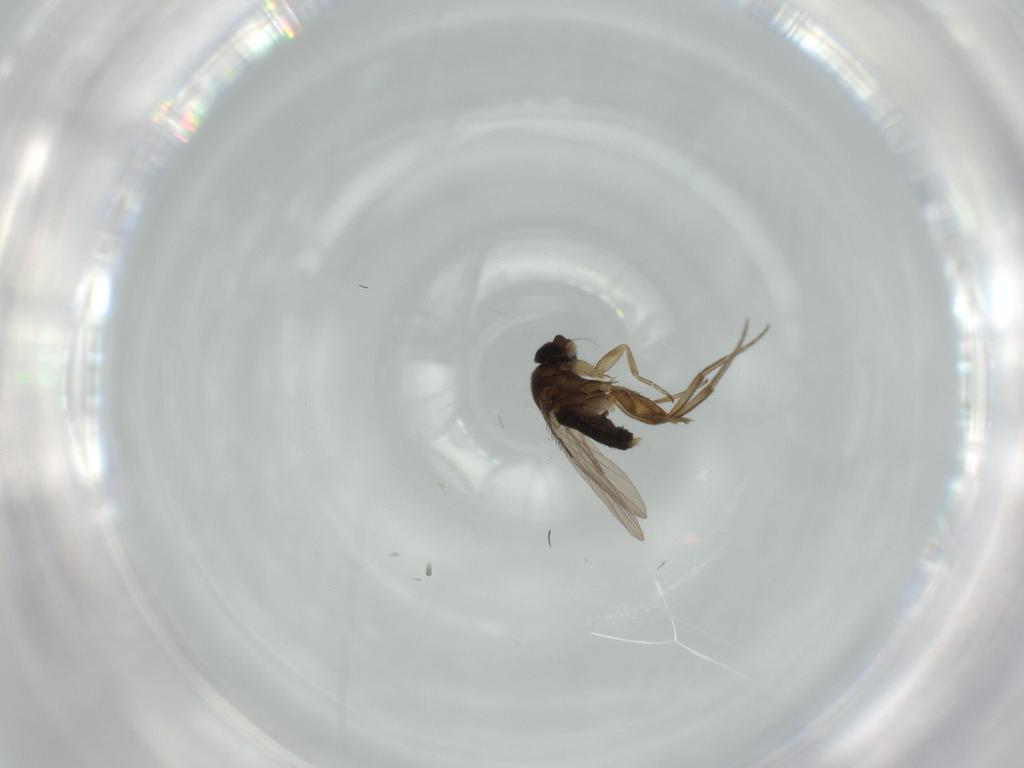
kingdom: Animalia
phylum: Arthropoda
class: Insecta
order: Diptera
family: Phoridae
